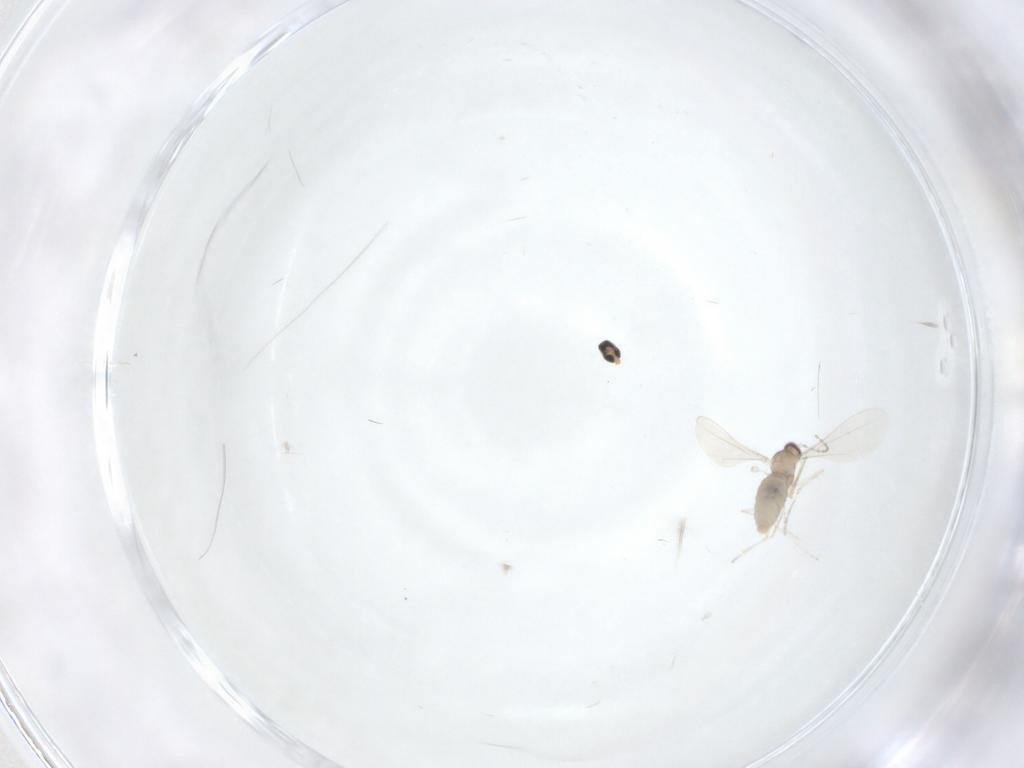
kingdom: Animalia
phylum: Arthropoda
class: Insecta
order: Diptera
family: Cecidomyiidae
